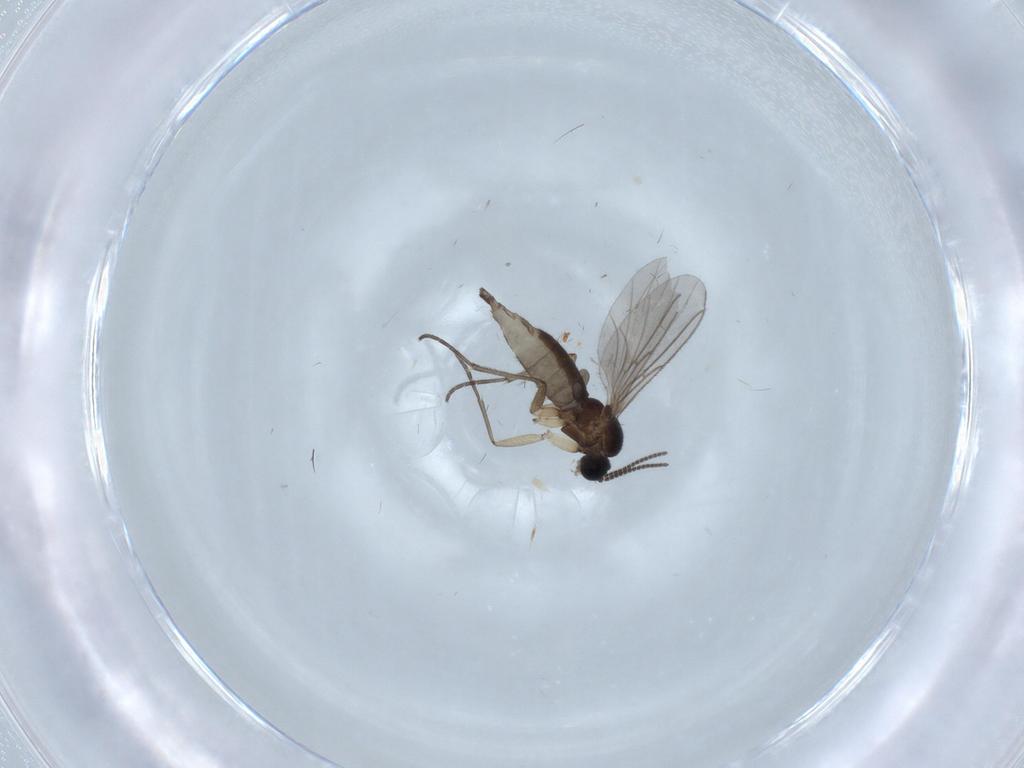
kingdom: Animalia
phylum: Arthropoda
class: Insecta
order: Diptera
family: Sciaridae
